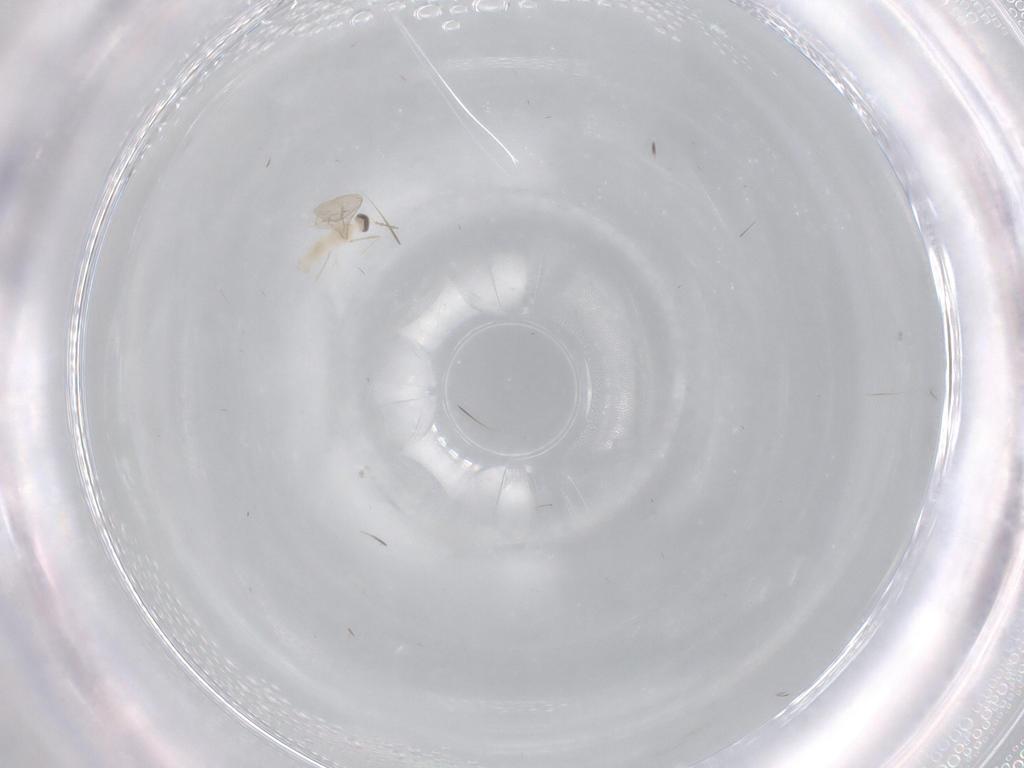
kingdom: Animalia
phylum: Arthropoda
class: Insecta
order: Diptera
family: Cecidomyiidae
